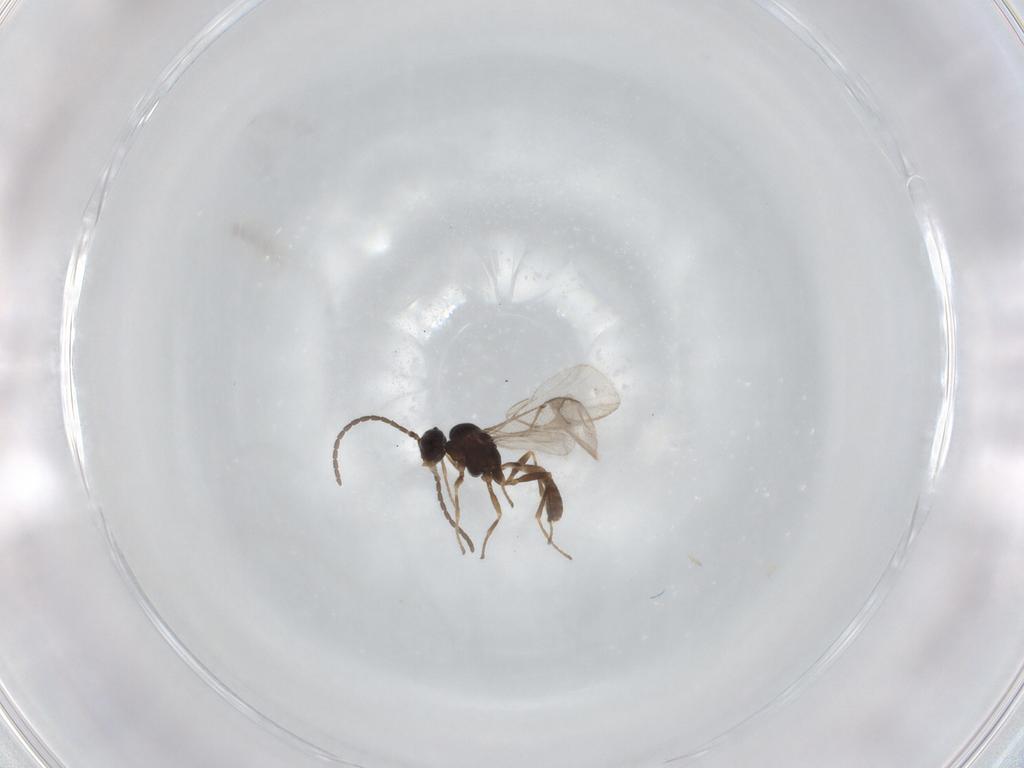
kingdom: Animalia
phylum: Arthropoda
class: Insecta
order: Hymenoptera
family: Braconidae
